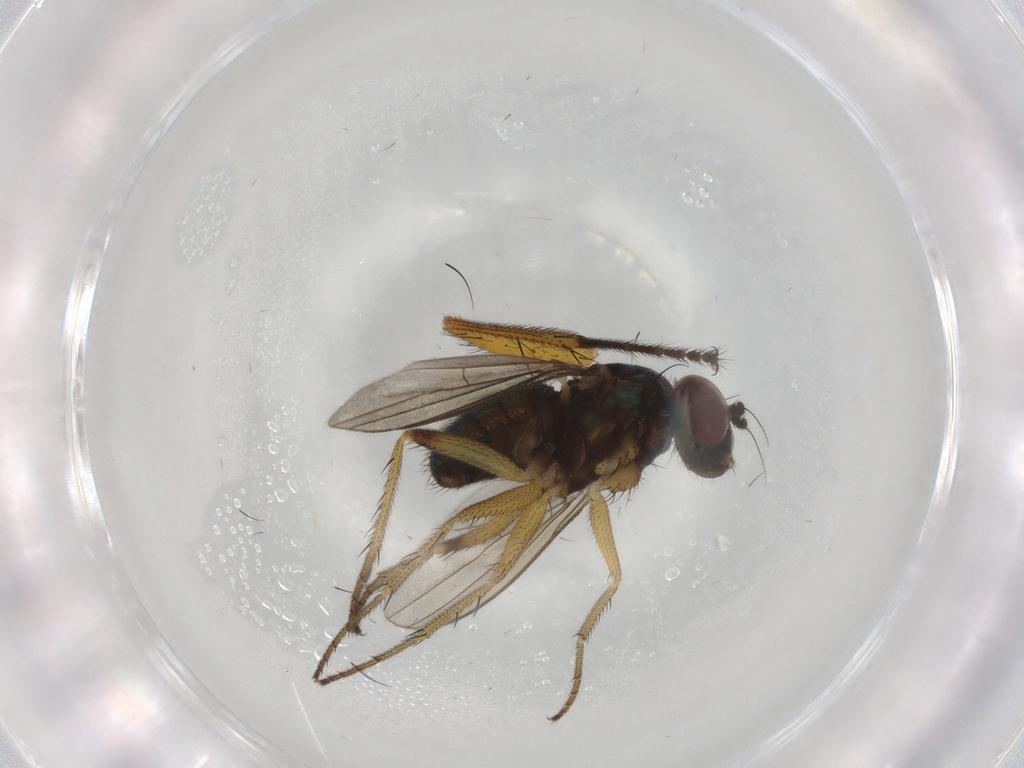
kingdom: Animalia
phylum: Arthropoda
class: Insecta
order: Diptera
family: Dolichopodidae
